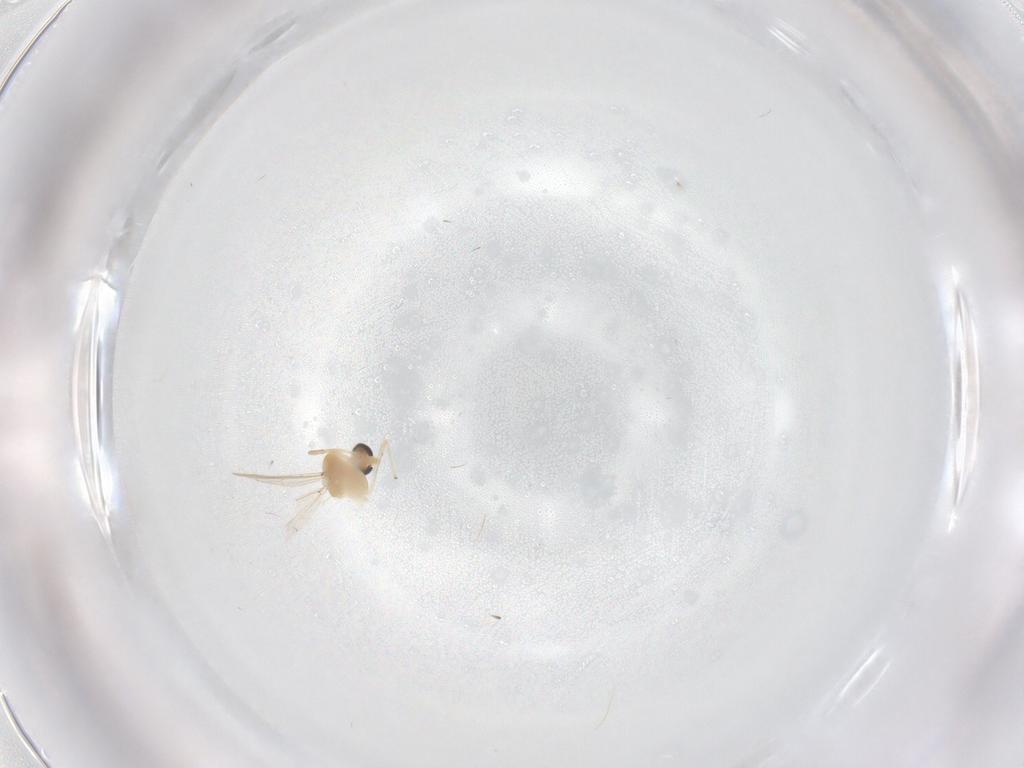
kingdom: Animalia
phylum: Arthropoda
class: Insecta
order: Diptera
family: Chironomidae
